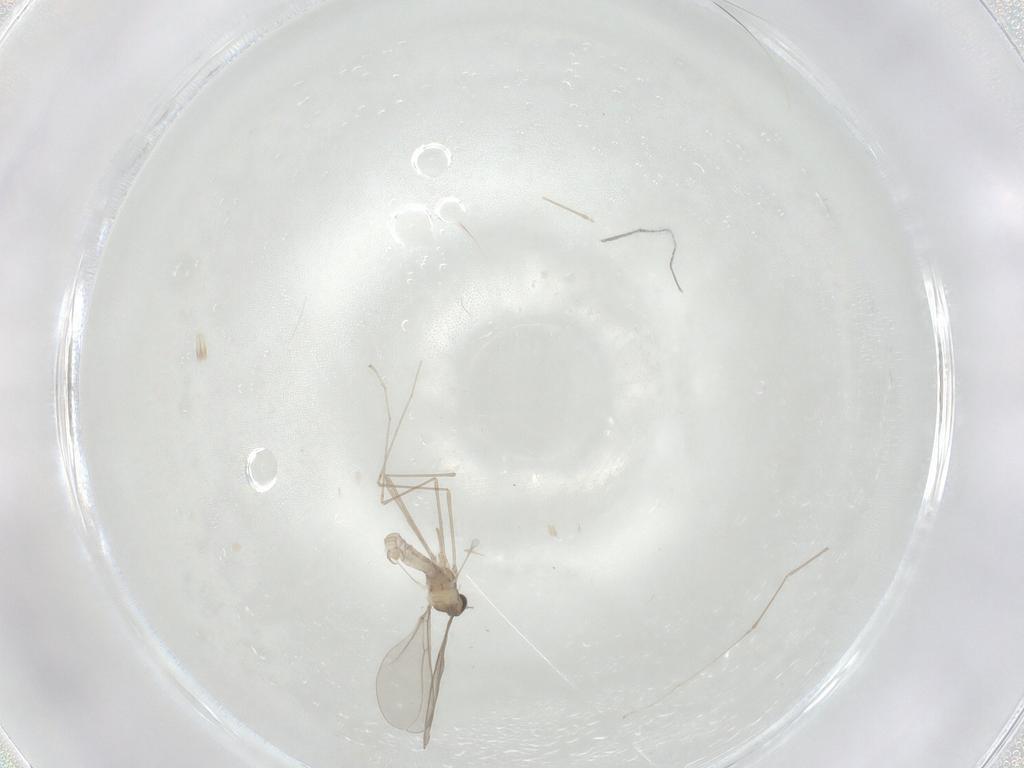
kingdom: Animalia
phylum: Arthropoda
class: Insecta
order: Diptera
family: Cecidomyiidae
